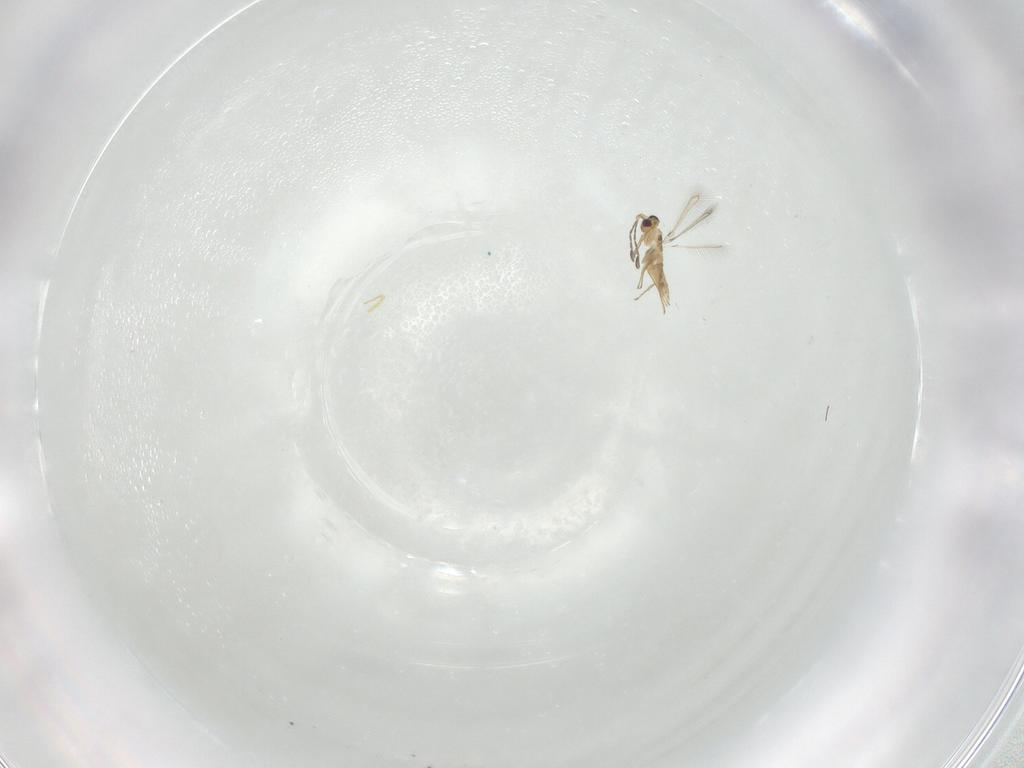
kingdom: Animalia
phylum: Arthropoda
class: Insecta
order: Hymenoptera
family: Mymaridae
